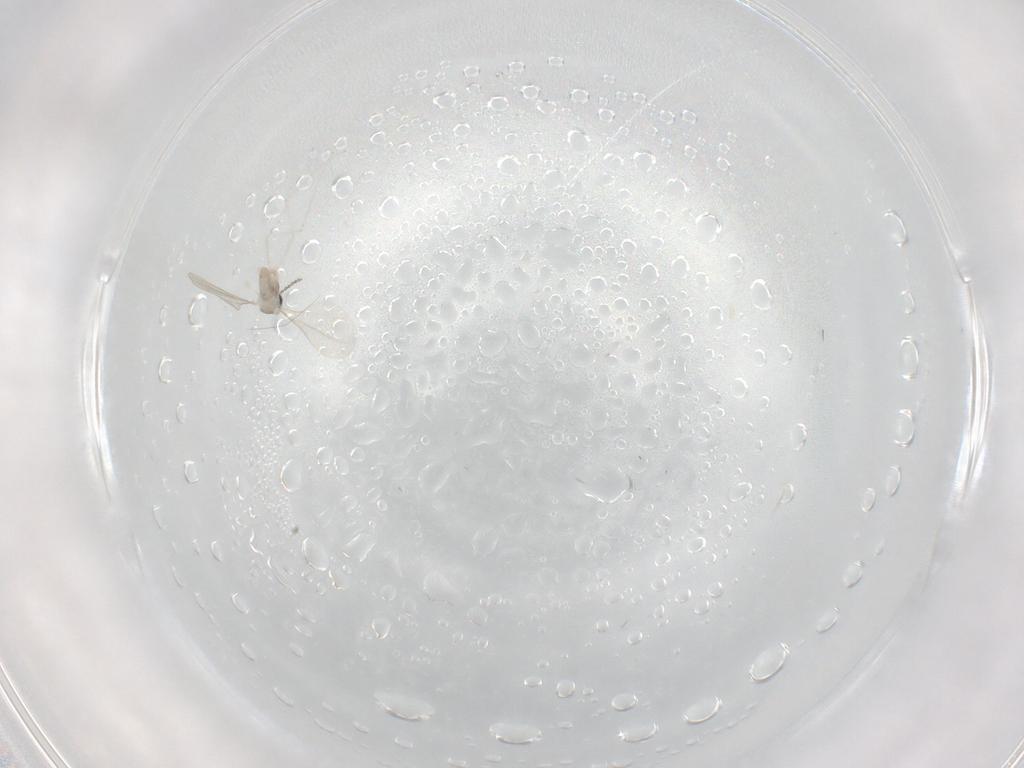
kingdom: Animalia
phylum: Arthropoda
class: Insecta
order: Diptera
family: Cecidomyiidae
